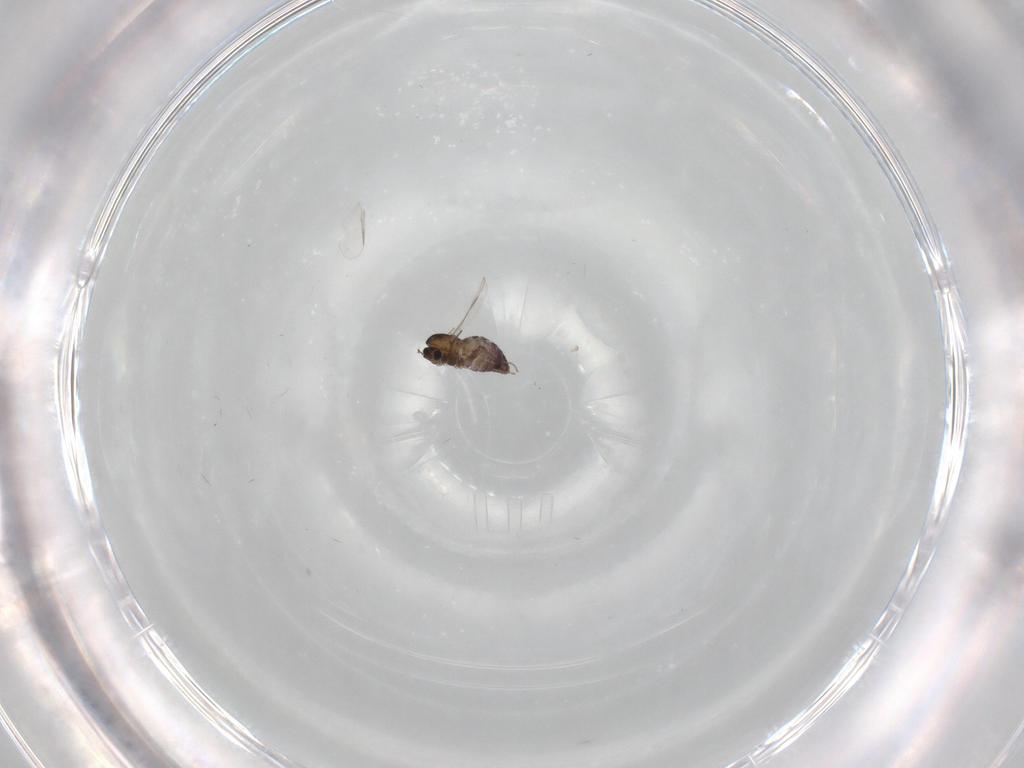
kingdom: Animalia
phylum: Arthropoda
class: Insecta
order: Diptera
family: Chironomidae
